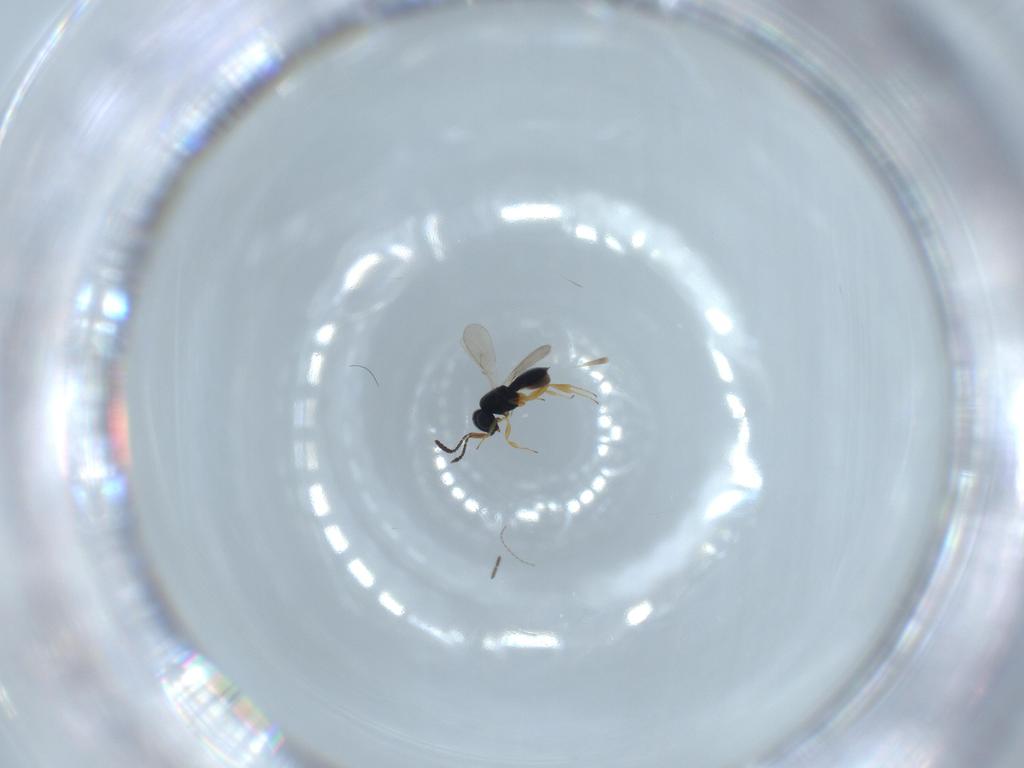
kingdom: Animalia
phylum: Arthropoda
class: Insecta
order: Hymenoptera
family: Scelionidae
